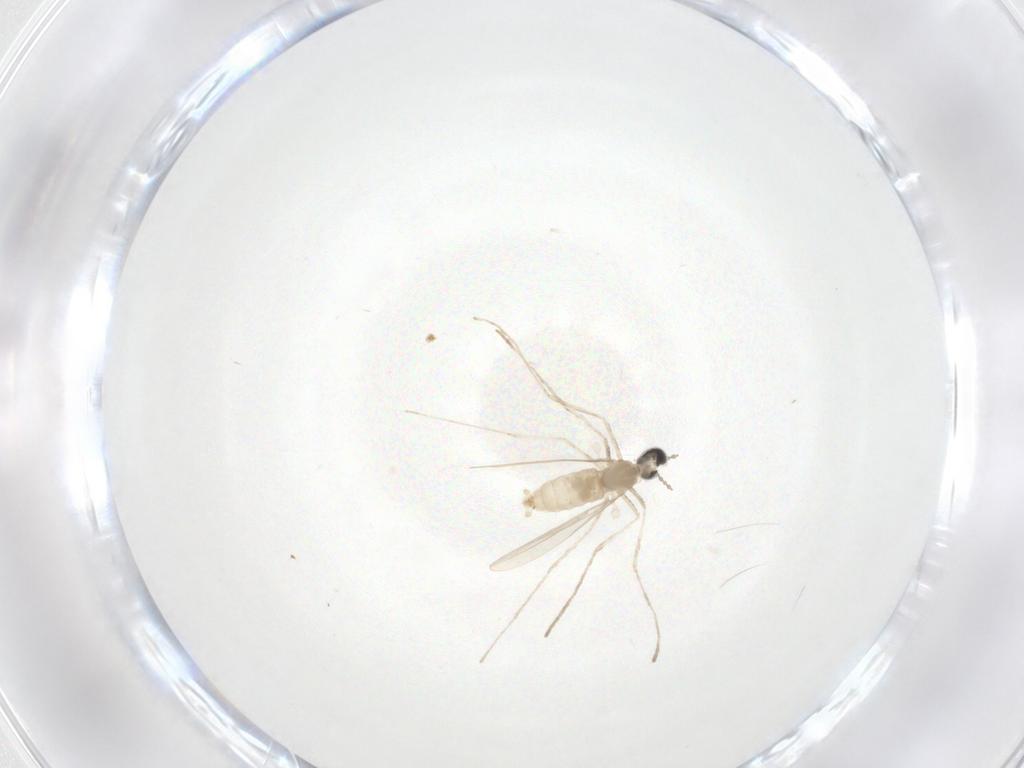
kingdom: Animalia
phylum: Arthropoda
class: Insecta
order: Diptera
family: Cecidomyiidae
